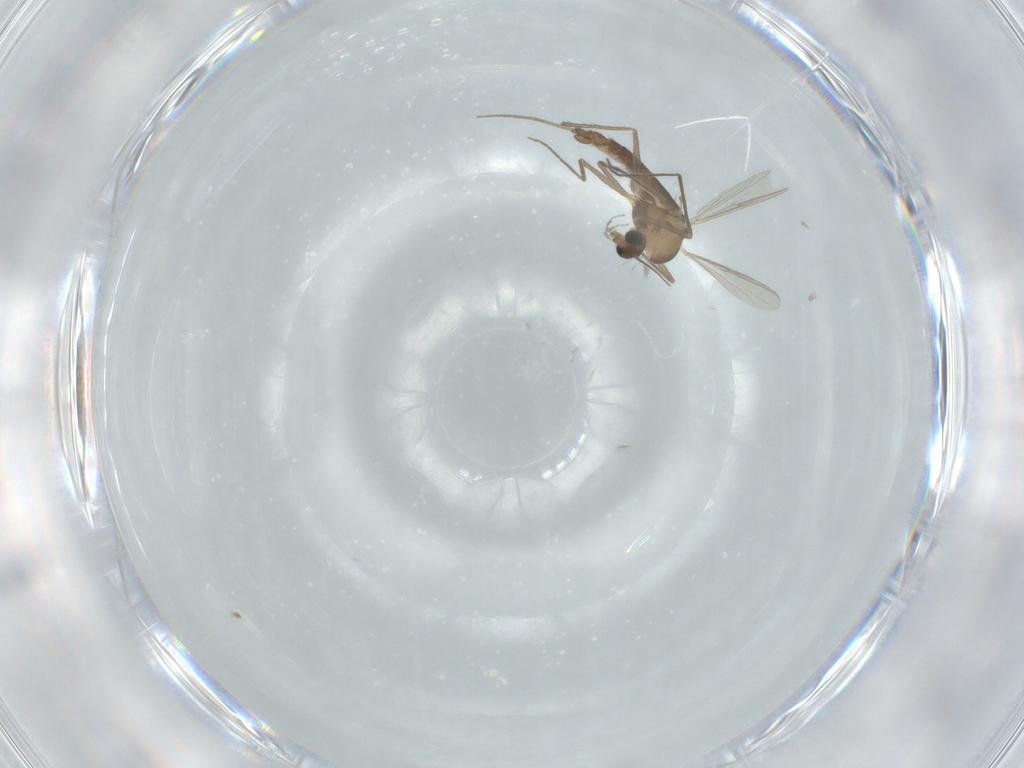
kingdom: Animalia
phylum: Arthropoda
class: Insecta
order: Diptera
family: Chironomidae
